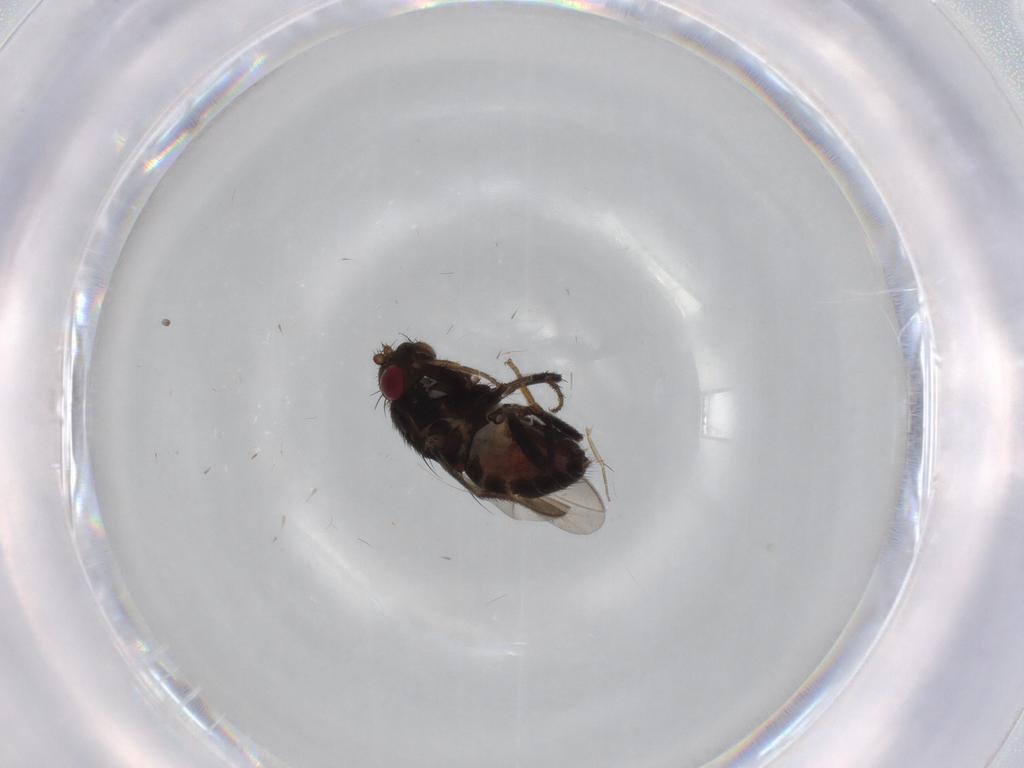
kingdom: Animalia
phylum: Arthropoda
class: Insecta
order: Diptera
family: Sphaeroceridae
